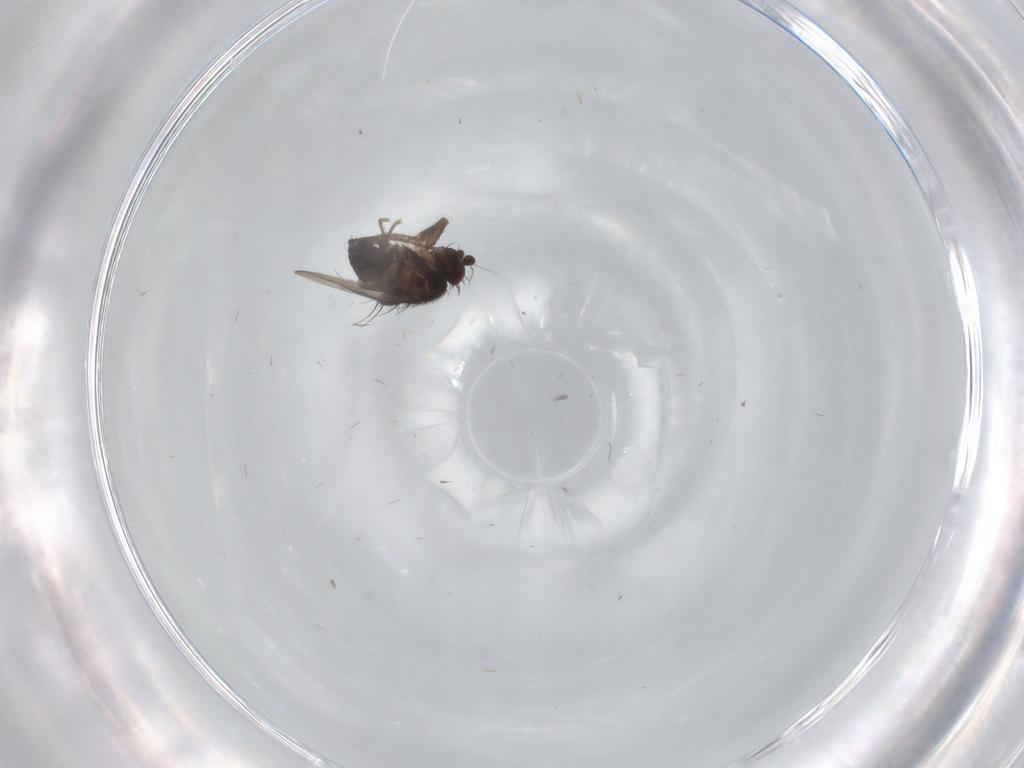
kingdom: Animalia
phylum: Arthropoda
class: Insecta
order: Diptera
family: Sphaeroceridae
